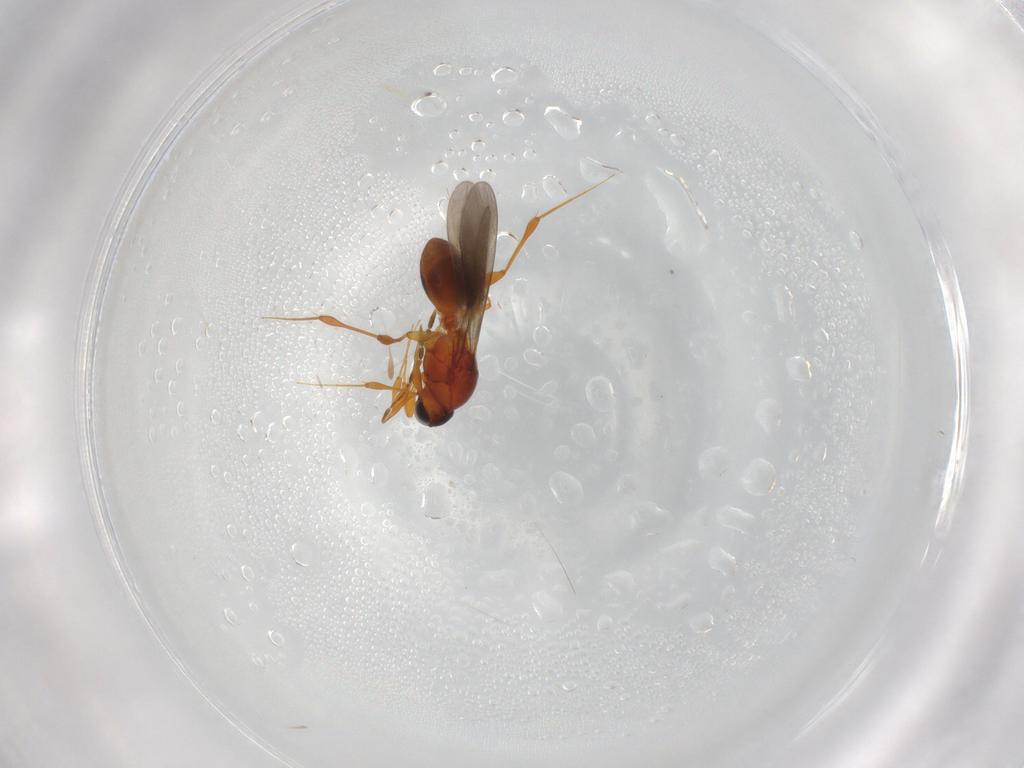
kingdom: Animalia
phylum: Arthropoda
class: Insecta
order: Hymenoptera
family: Platygastridae
